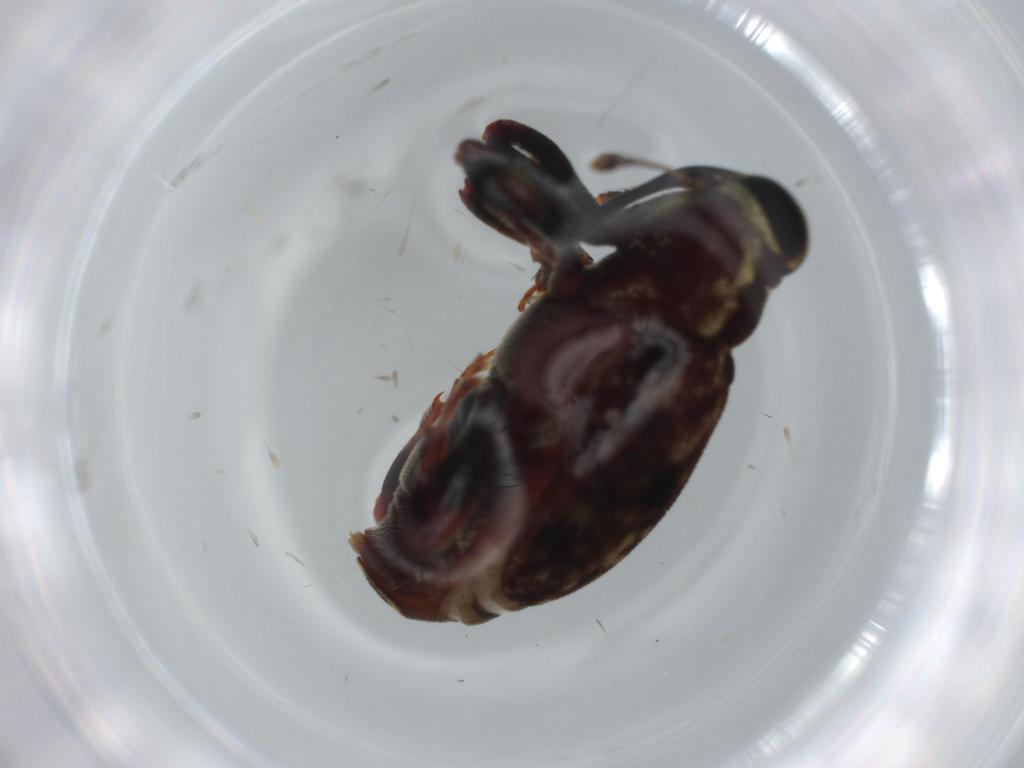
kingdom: Animalia
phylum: Arthropoda
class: Insecta
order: Coleoptera
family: Curculionidae
